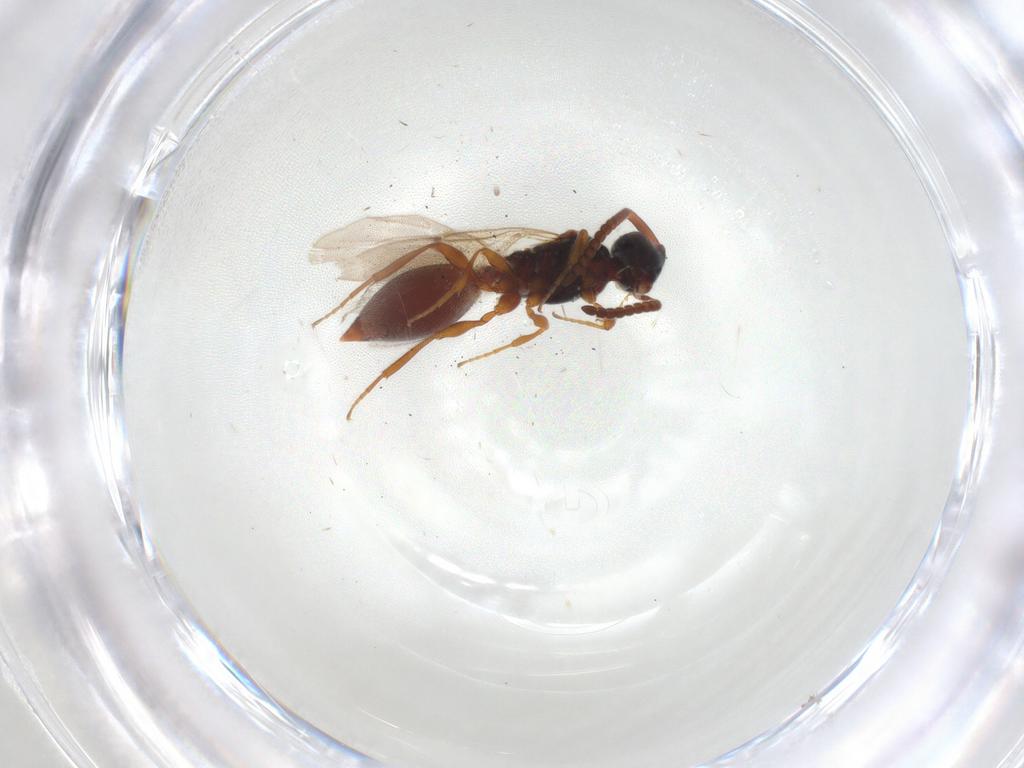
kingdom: Animalia
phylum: Arthropoda
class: Insecta
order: Hymenoptera
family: Diapriidae
